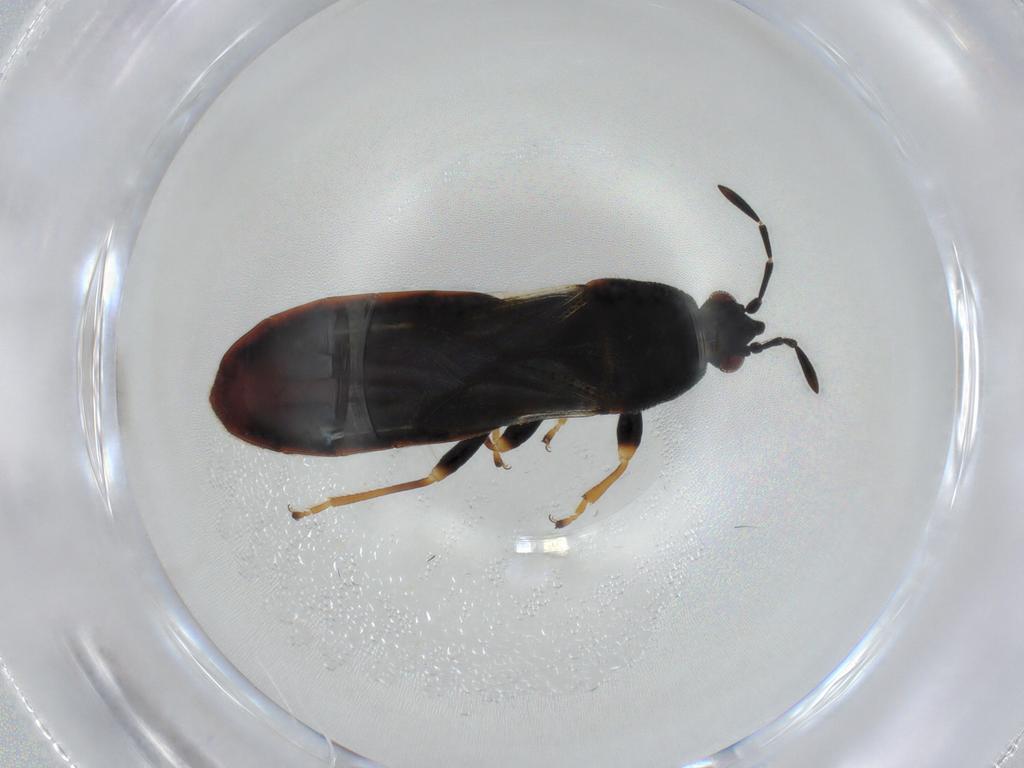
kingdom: Animalia
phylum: Arthropoda
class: Insecta
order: Hemiptera
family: Blissidae
